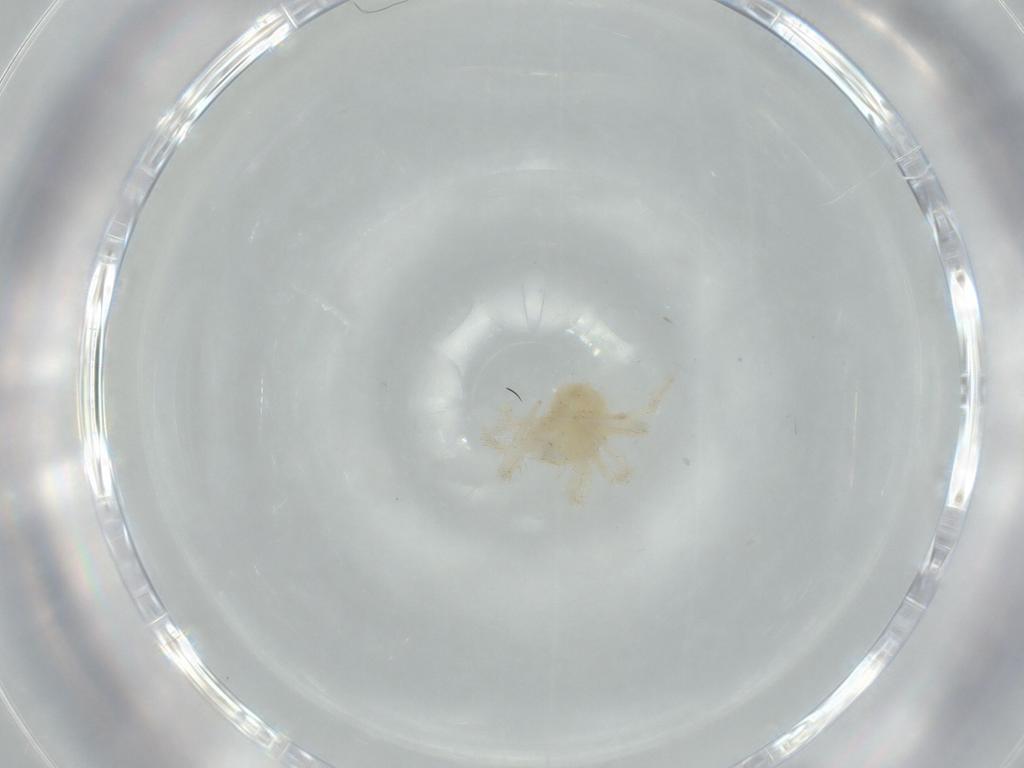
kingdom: Animalia
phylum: Arthropoda
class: Arachnida
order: Trombidiformes
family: Anystidae
